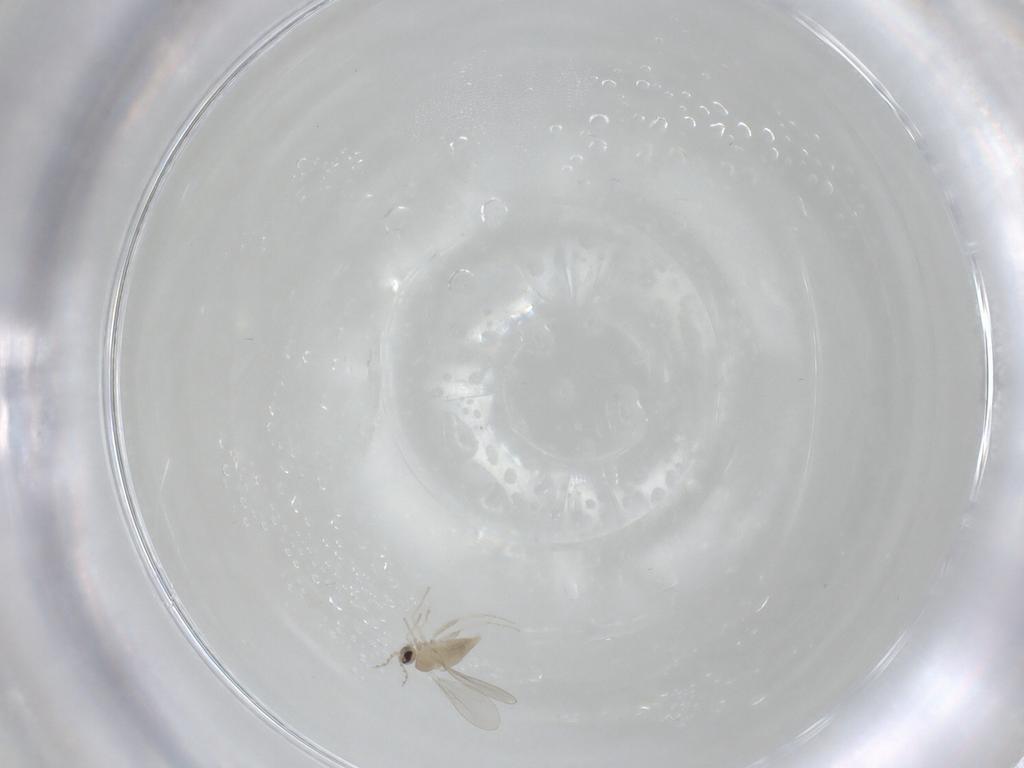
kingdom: Animalia
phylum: Arthropoda
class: Insecta
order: Diptera
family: Cecidomyiidae
